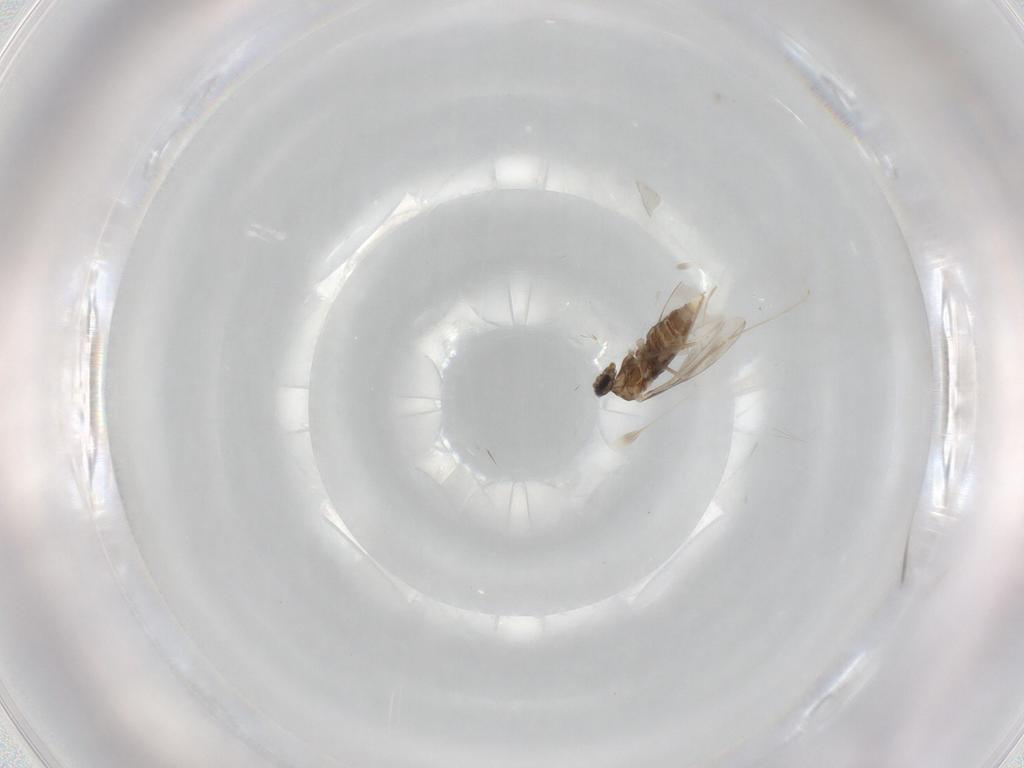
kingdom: Animalia
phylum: Arthropoda
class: Insecta
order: Diptera
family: Cecidomyiidae
